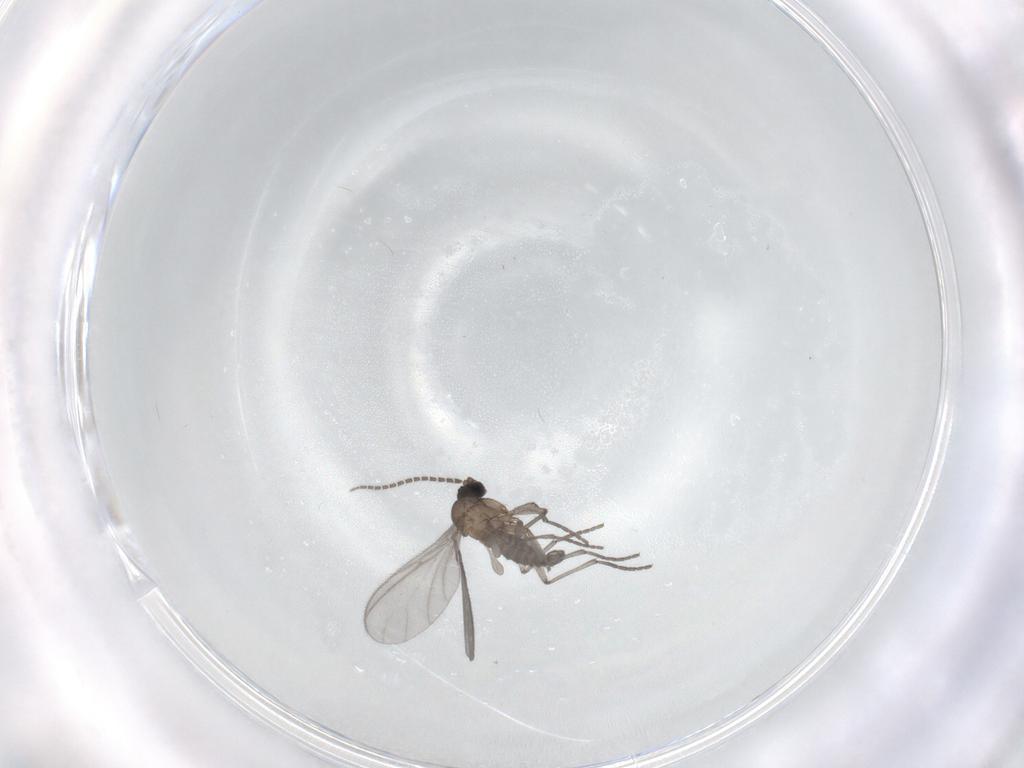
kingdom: Animalia
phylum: Arthropoda
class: Insecta
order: Diptera
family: Sciaridae
